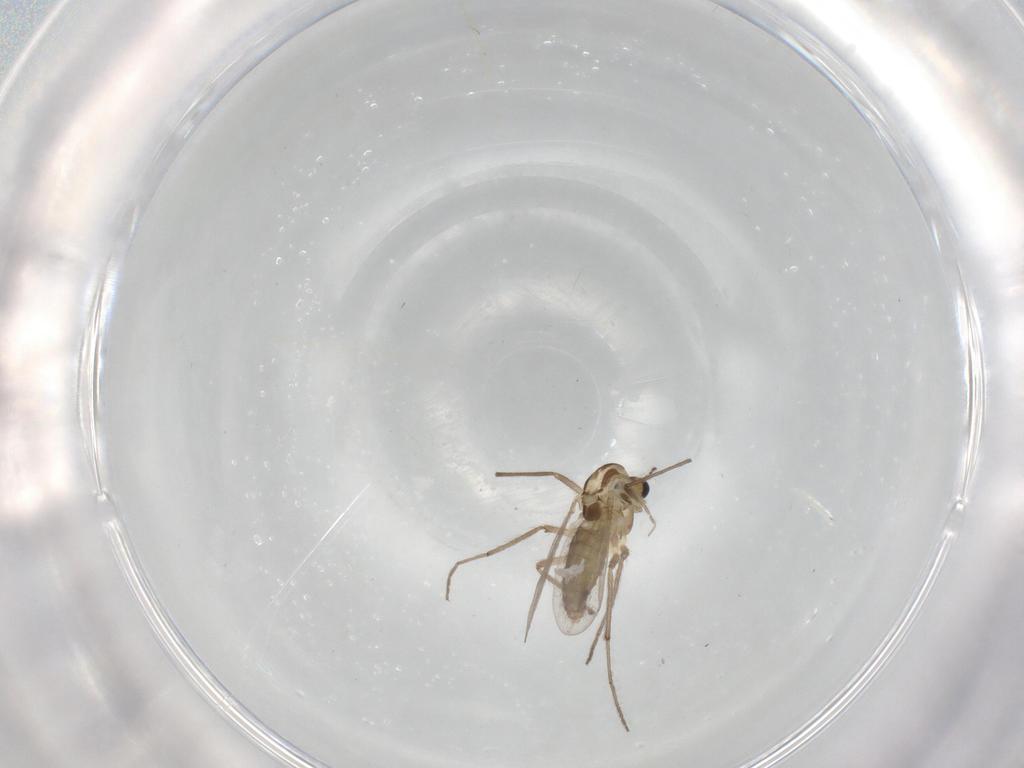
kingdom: Animalia
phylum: Arthropoda
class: Insecta
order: Diptera
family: Chironomidae
